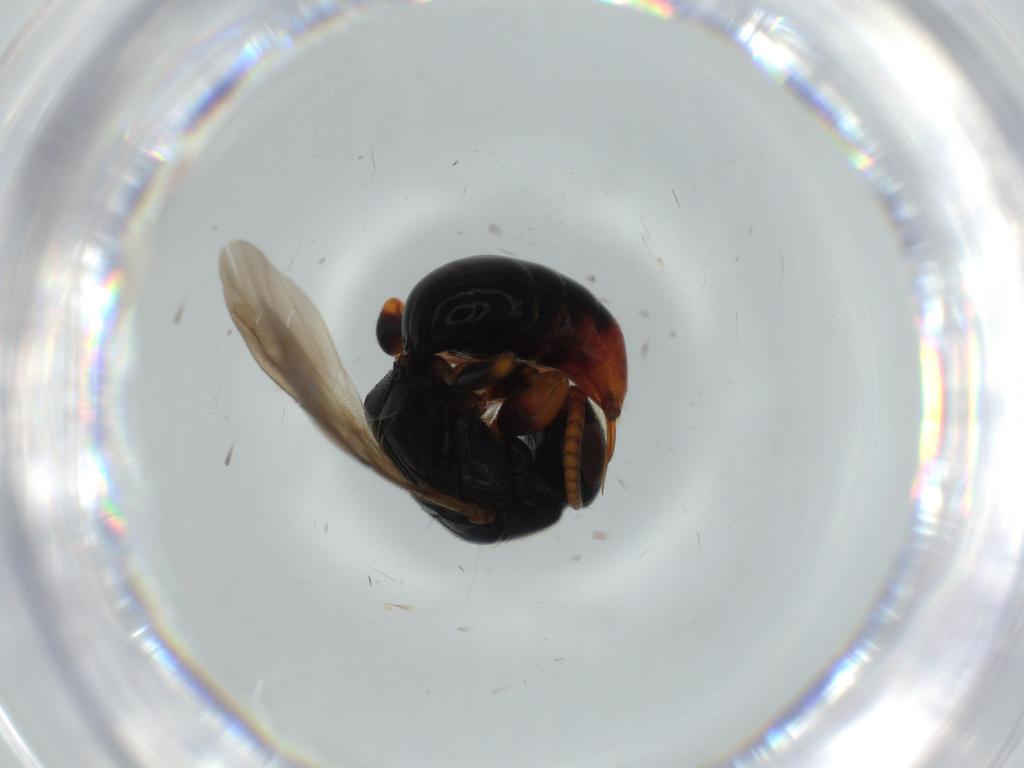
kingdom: Animalia
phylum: Arthropoda
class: Insecta
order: Hymenoptera
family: Bethylidae
